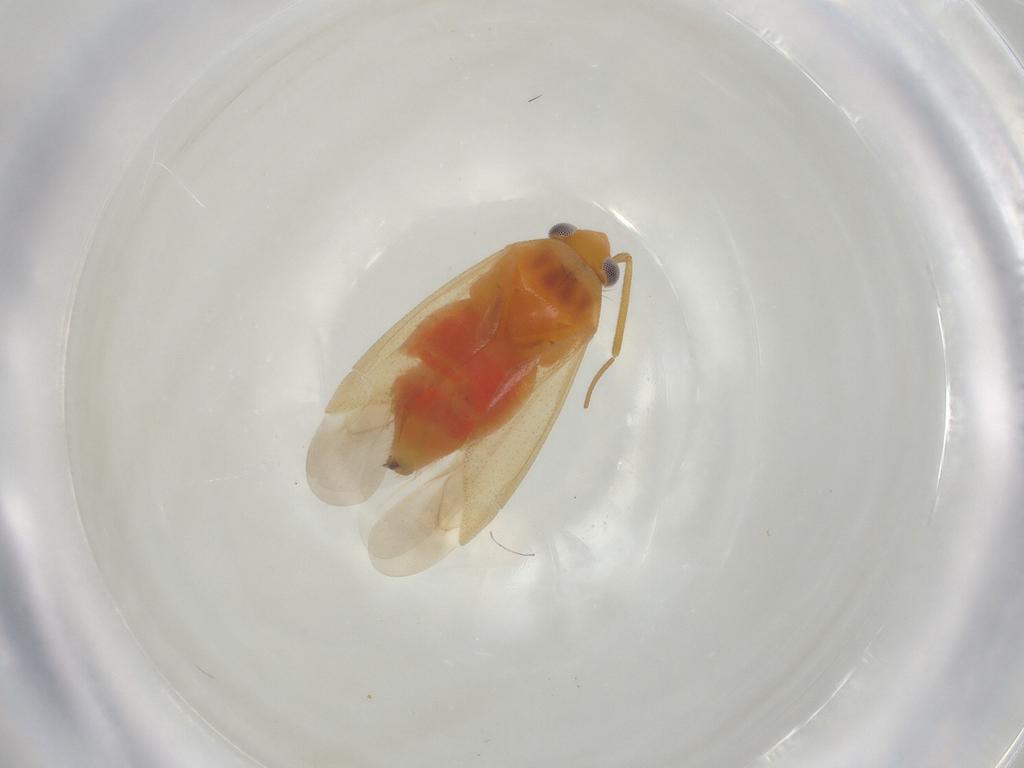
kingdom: Animalia
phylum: Arthropoda
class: Insecta
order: Hemiptera
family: Miridae
